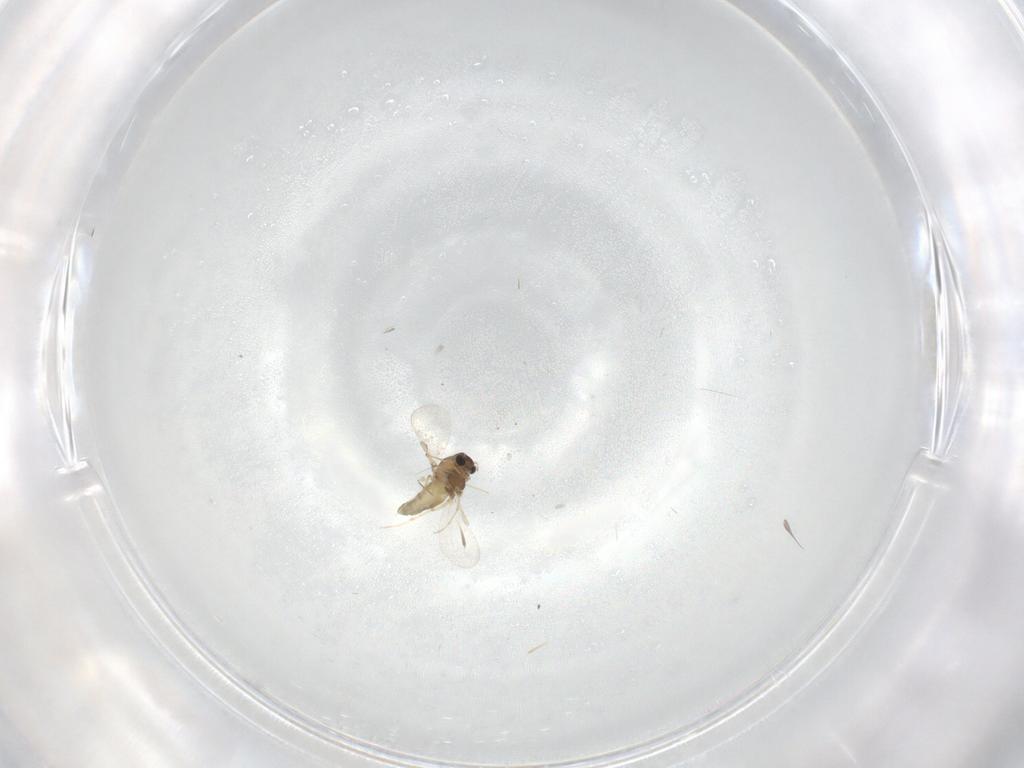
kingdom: Animalia
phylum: Arthropoda
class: Insecta
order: Diptera
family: Chironomidae
